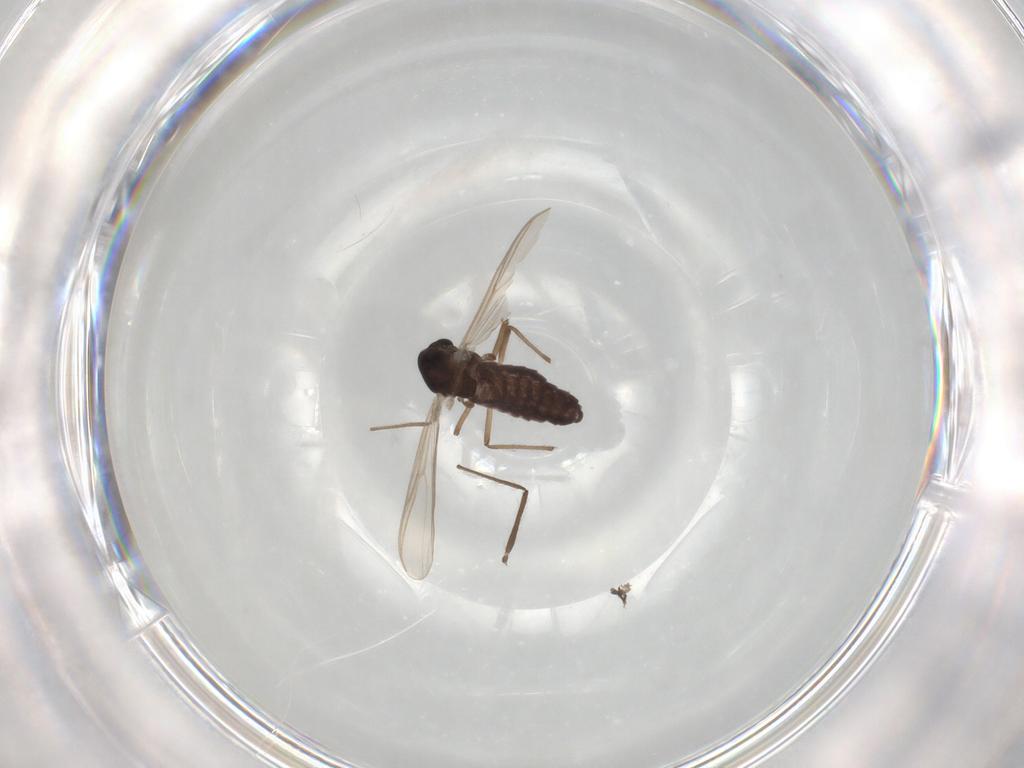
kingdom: Animalia
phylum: Arthropoda
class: Insecta
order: Diptera
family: Chironomidae
